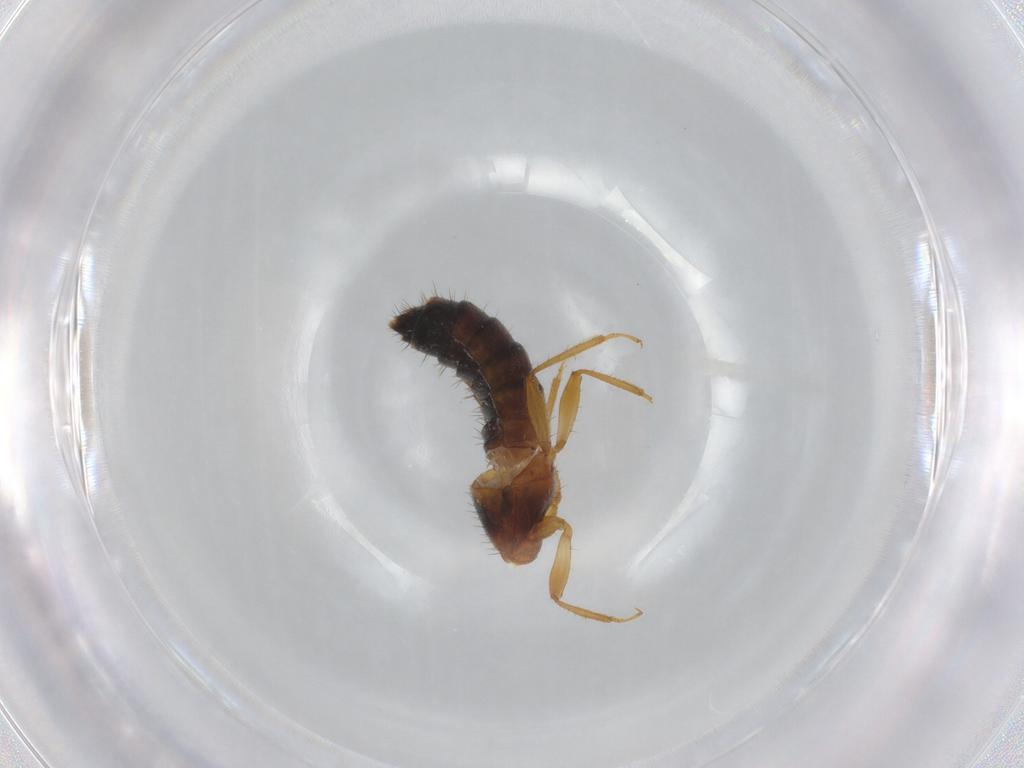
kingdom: Animalia
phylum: Arthropoda
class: Insecta
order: Coleoptera
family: Staphylinidae
